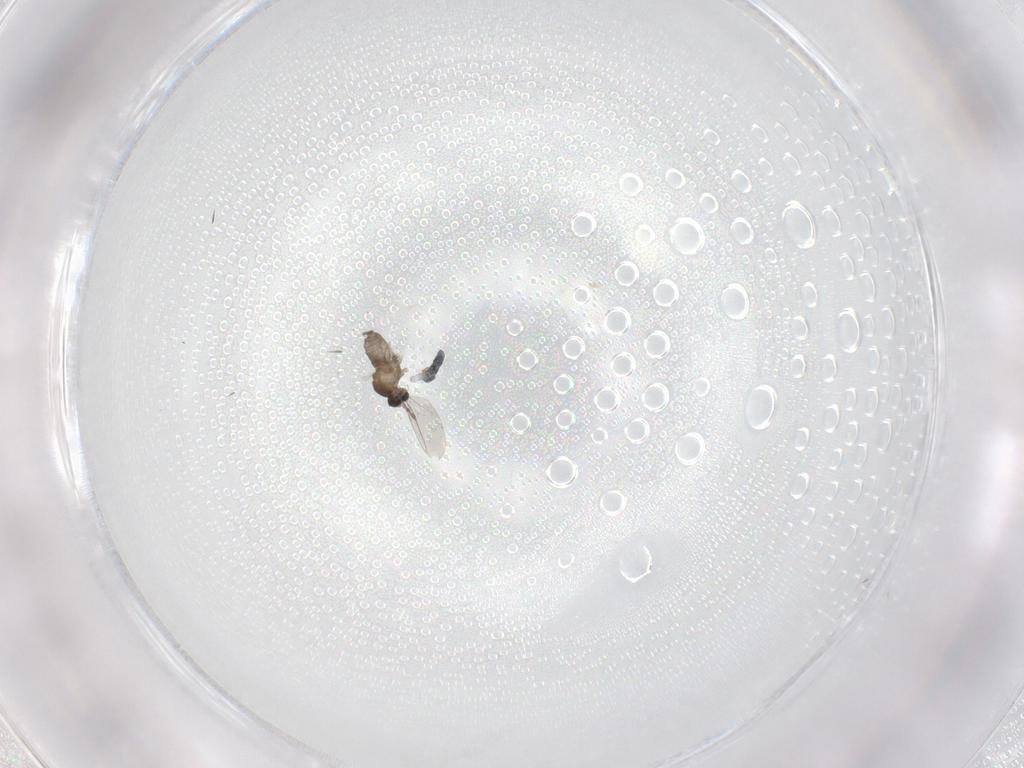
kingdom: Animalia
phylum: Arthropoda
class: Insecta
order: Diptera
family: Cecidomyiidae
